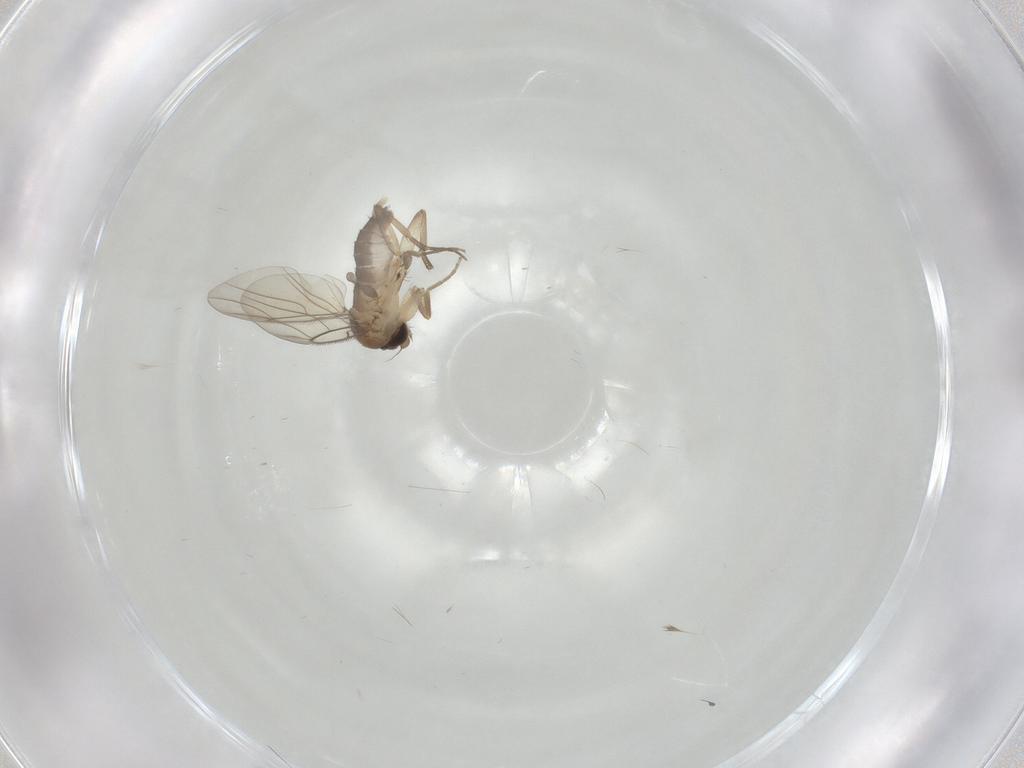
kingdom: Animalia
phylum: Arthropoda
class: Insecta
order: Diptera
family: Phoridae
